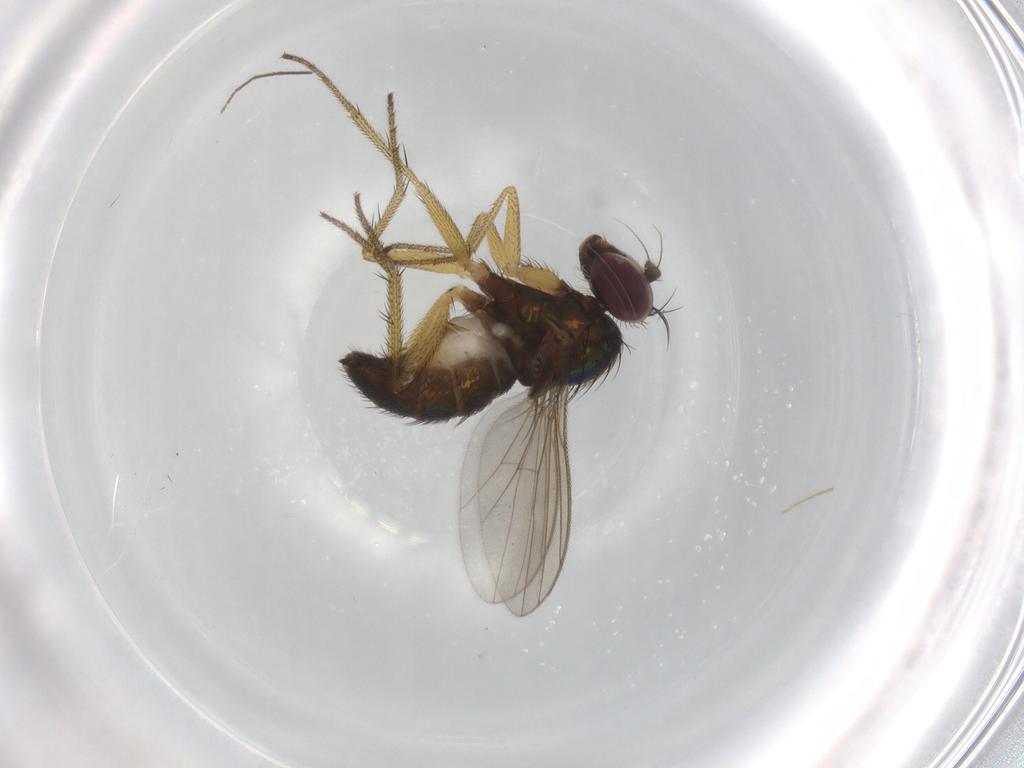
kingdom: Animalia
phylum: Arthropoda
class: Insecta
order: Diptera
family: Dolichopodidae
